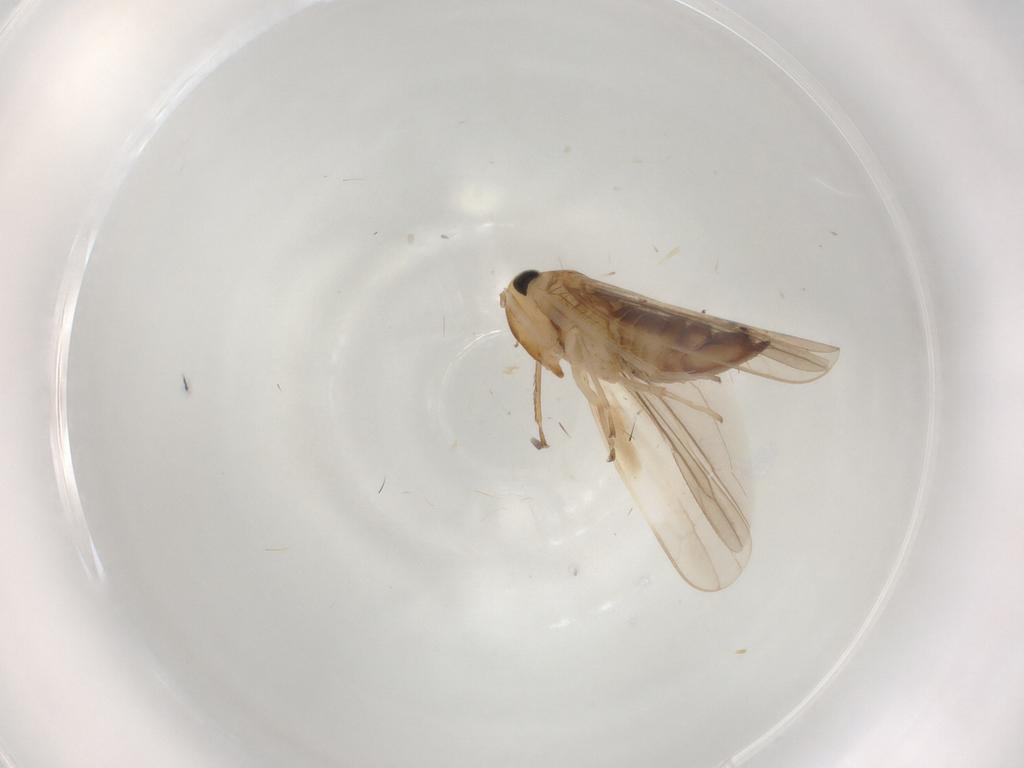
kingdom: Animalia
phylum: Arthropoda
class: Insecta
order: Hemiptera
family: Cicadellidae
